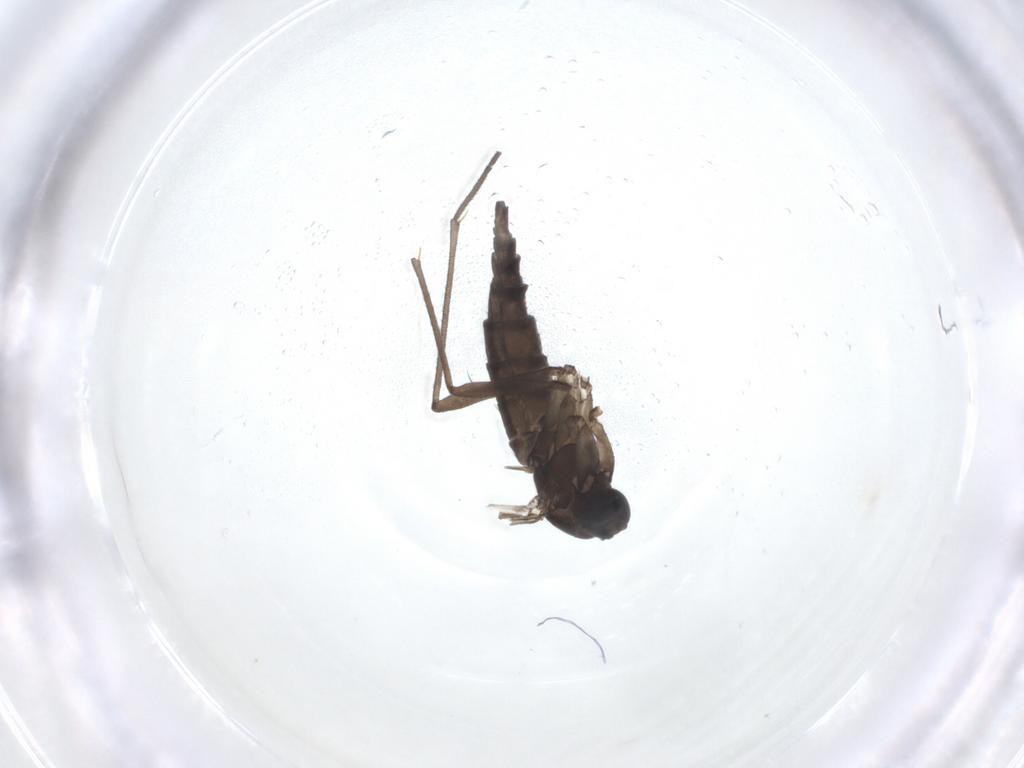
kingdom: Animalia
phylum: Arthropoda
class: Insecta
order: Diptera
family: Sciaridae
